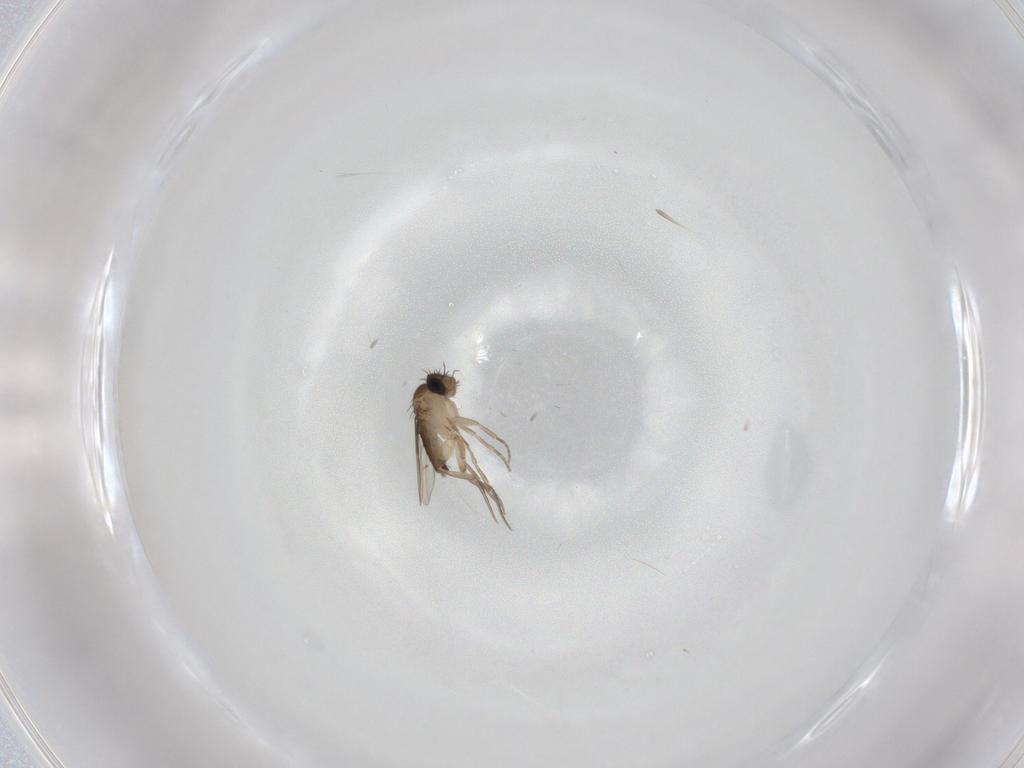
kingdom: Animalia
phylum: Arthropoda
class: Insecta
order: Diptera
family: Phoridae
